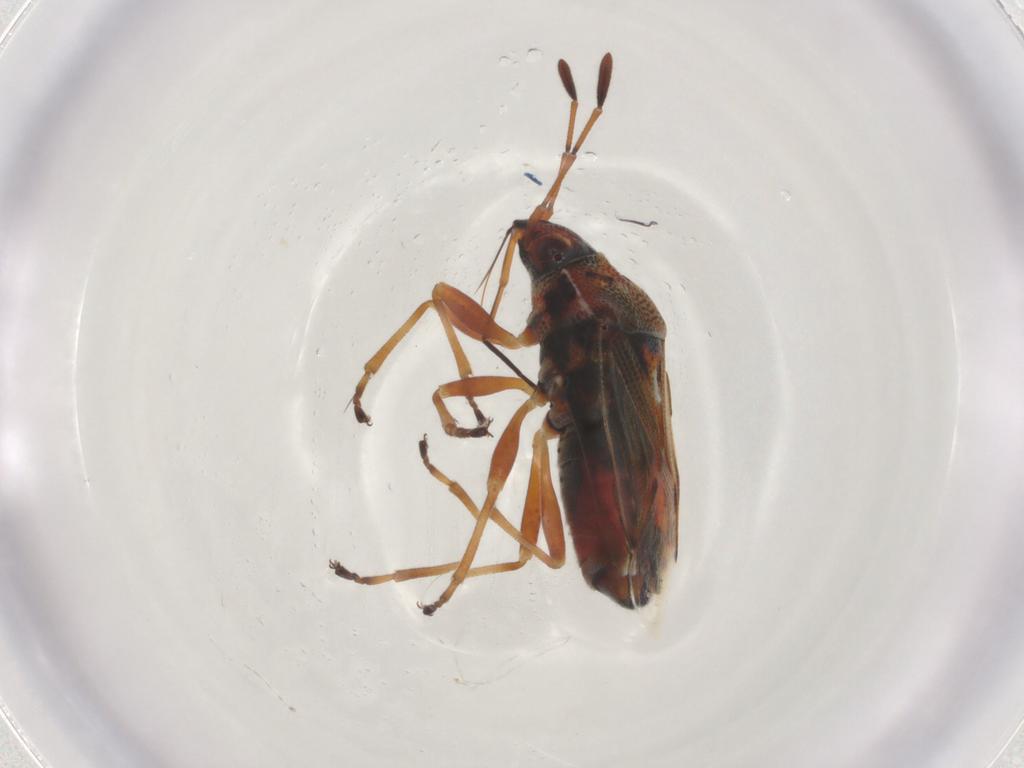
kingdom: Animalia
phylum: Arthropoda
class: Insecta
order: Hemiptera
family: Lygaeidae
